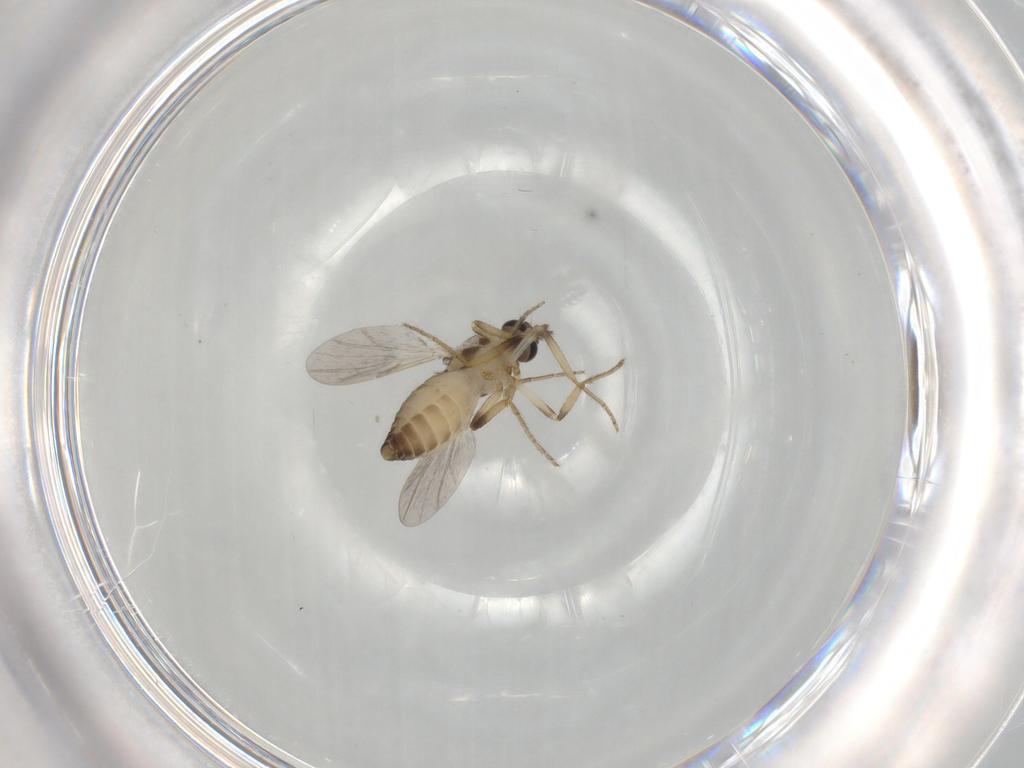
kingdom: Animalia
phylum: Arthropoda
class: Insecta
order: Diptera
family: Ceratopogonidae
